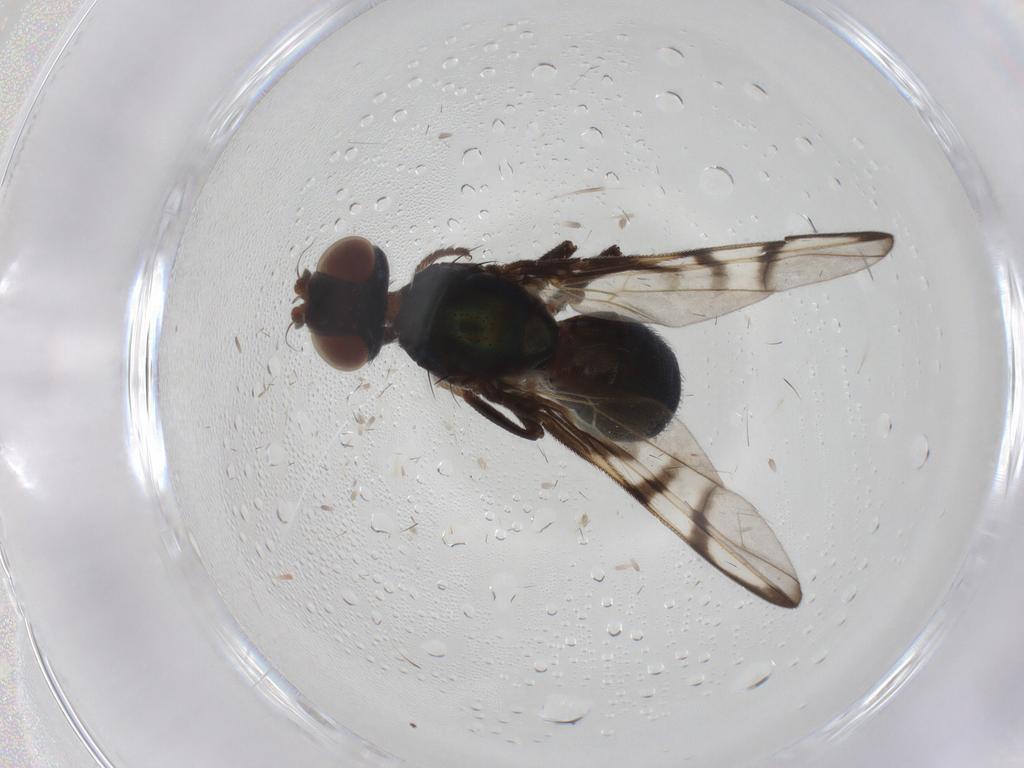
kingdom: Animalia
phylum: Arthropoda
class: Insecta
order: Diptera
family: Platystomatidae
